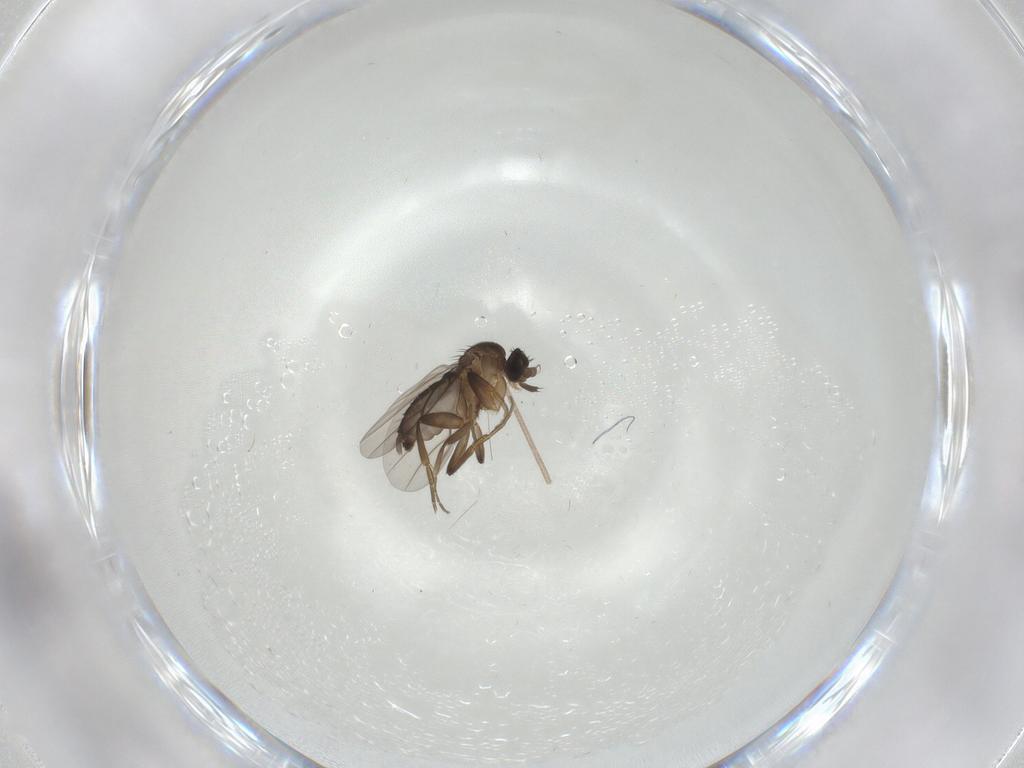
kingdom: Animalia
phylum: Arthropoda
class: Insecta
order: Diptera
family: Phoridae
